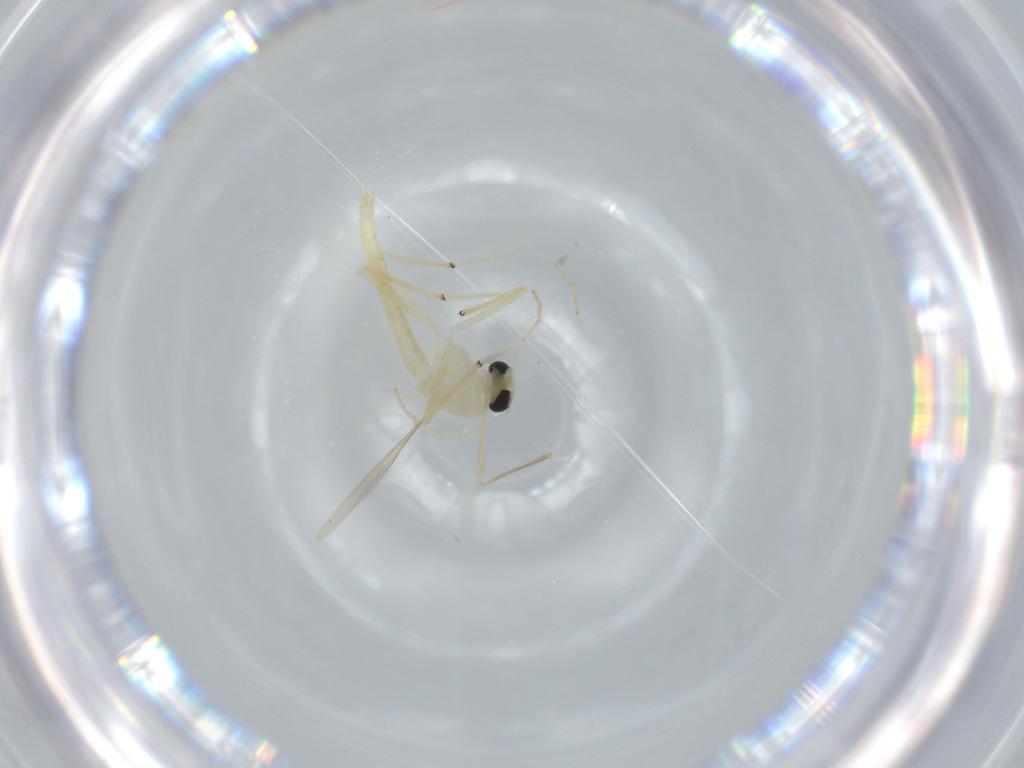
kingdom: Animalia
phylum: Arthropoda
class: Insecta
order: Diptera
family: Chironomidae
